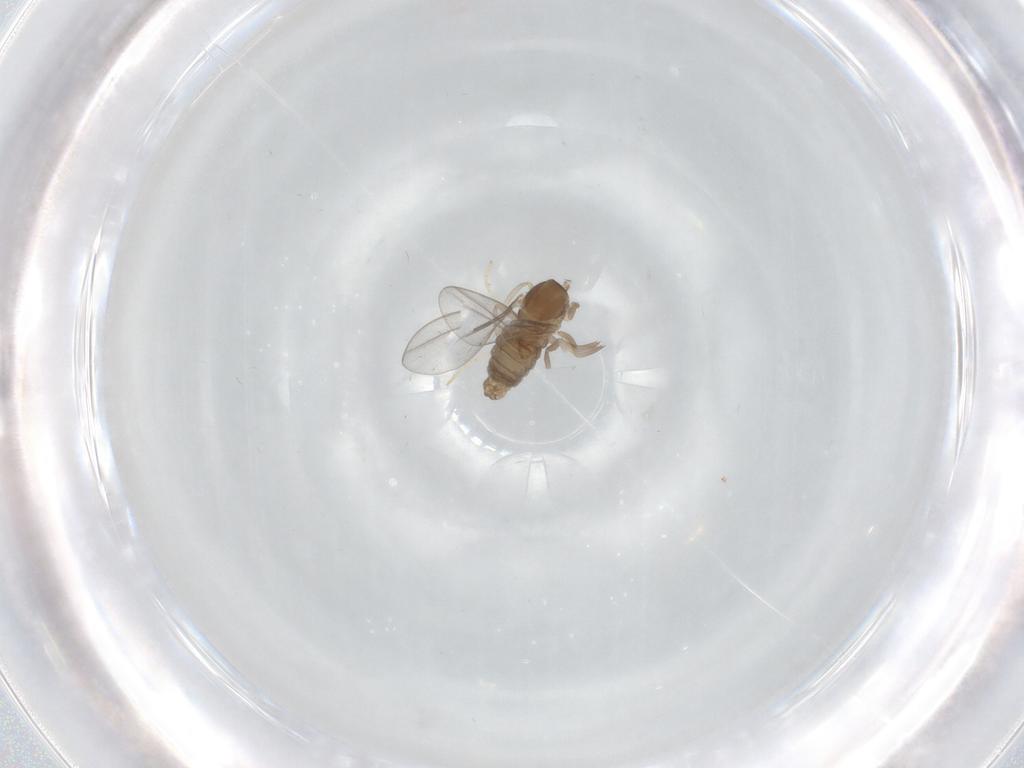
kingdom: Animalia
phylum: Arthropoda
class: Insecta
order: Diptera
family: Cecidomyiidae
